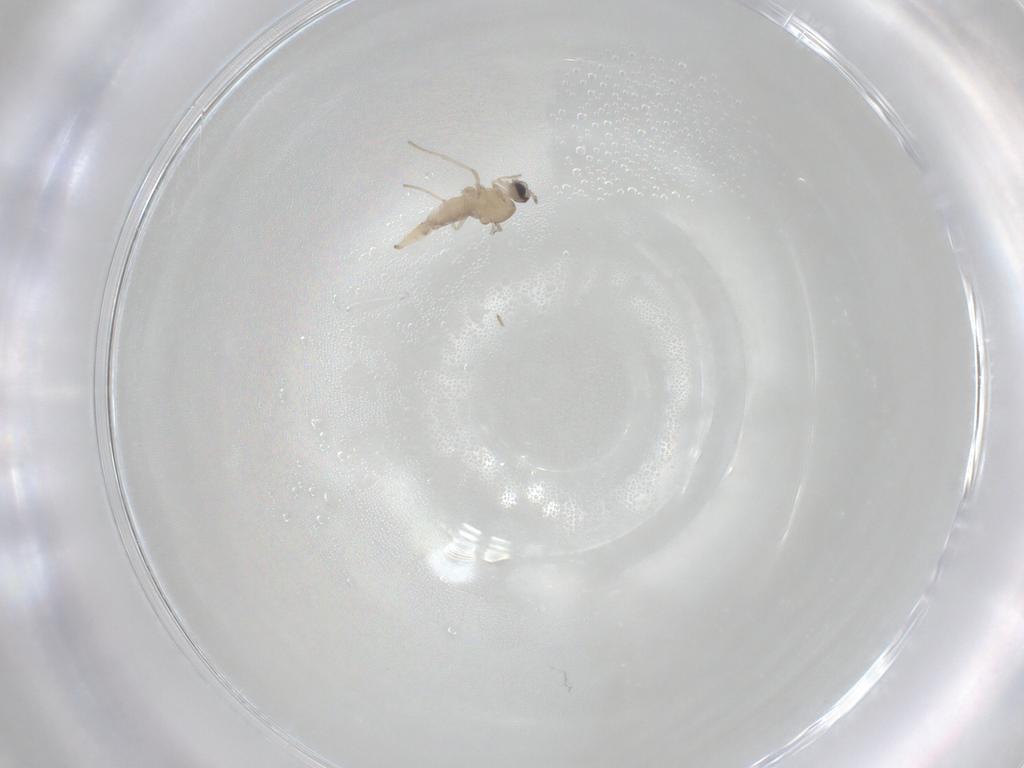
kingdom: Animalia
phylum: Arthropoda
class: Insecta
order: Diptera
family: Cecidomyiidae
